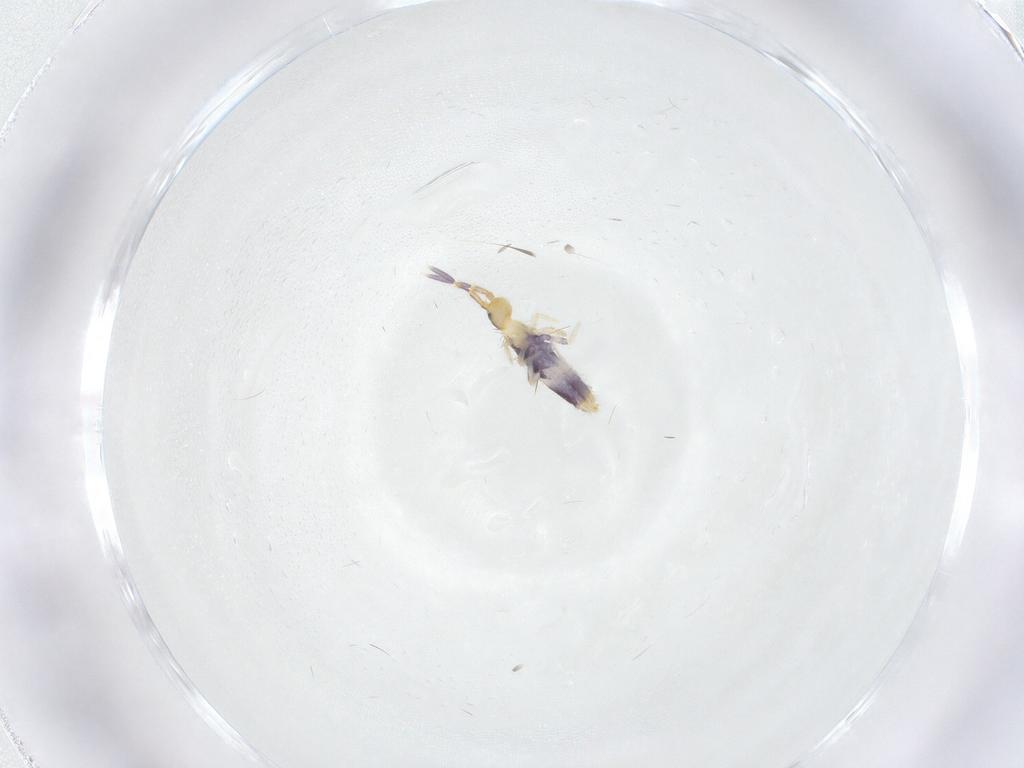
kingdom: Animalia
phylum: Arthropoda
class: Collembola
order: Entomobryomorpha
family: Entomobryidae
